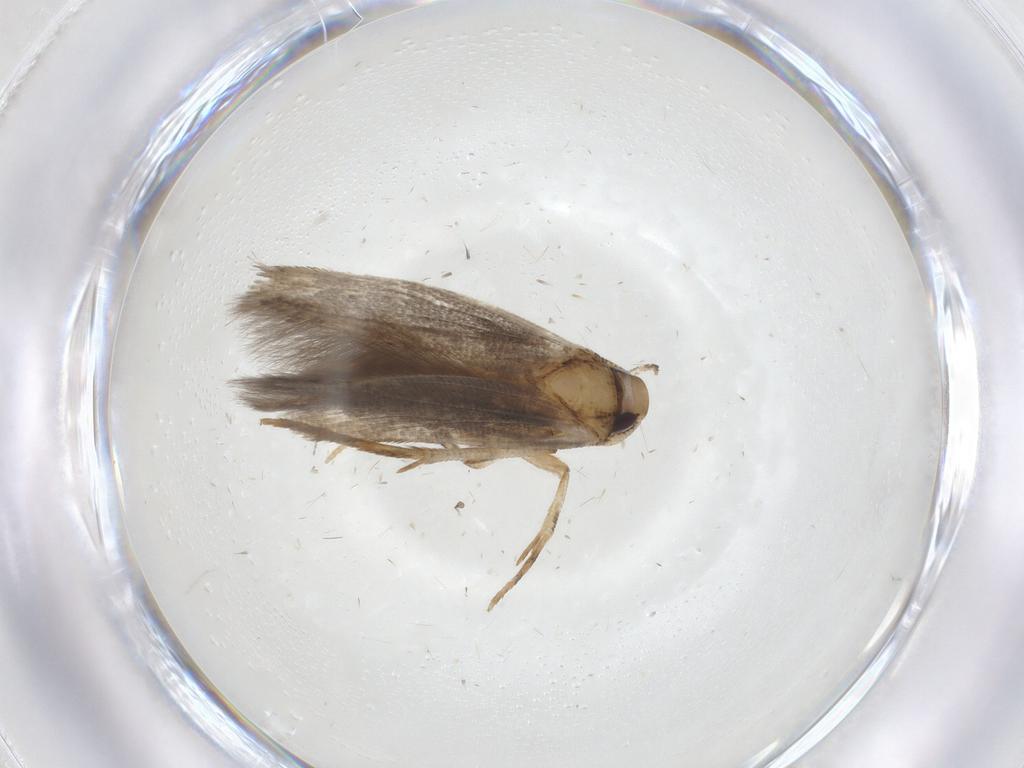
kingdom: Animalia
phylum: Arthropoda
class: Insecta
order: Lepidoptera
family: Cosmopterigidae
